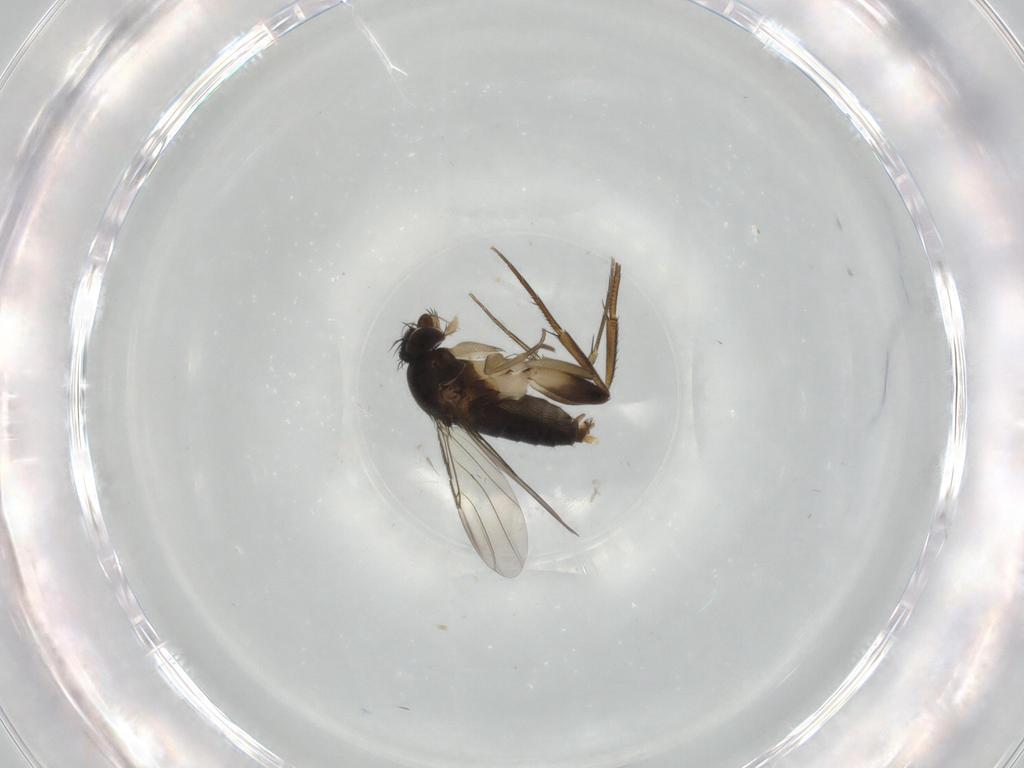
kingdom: Animalia
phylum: Arthropoda
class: Insecta
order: Diptera
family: Phoridae
